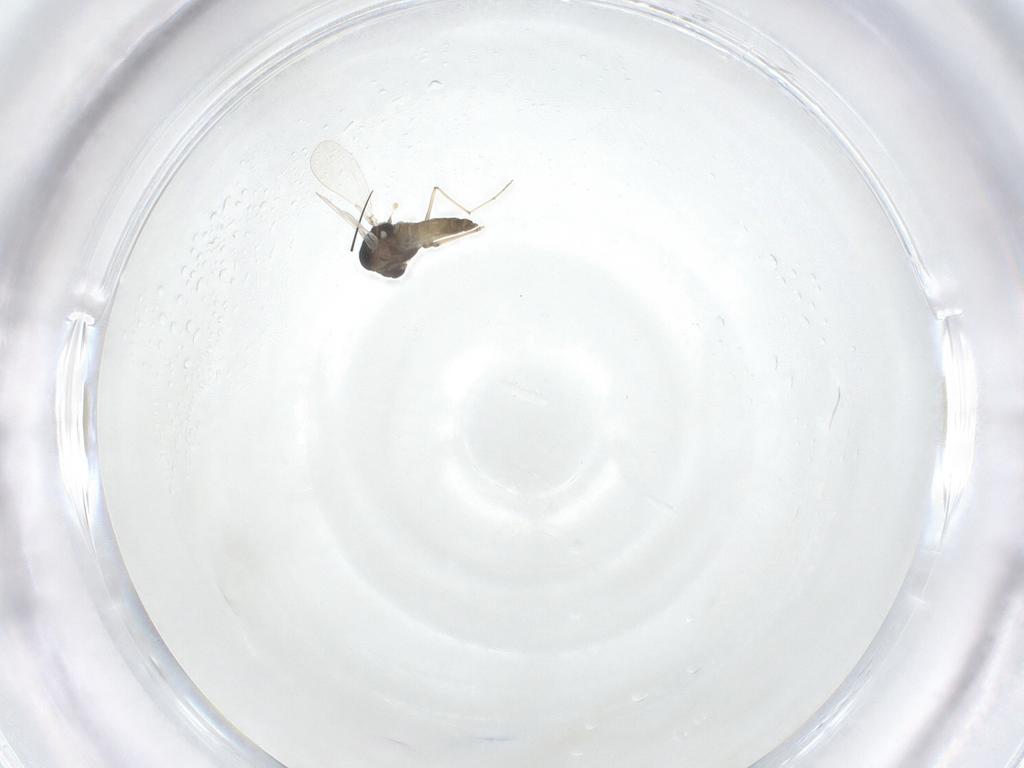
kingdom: Animalia
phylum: Arthropoda
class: Insecta
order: Diptera
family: Chironomidae
